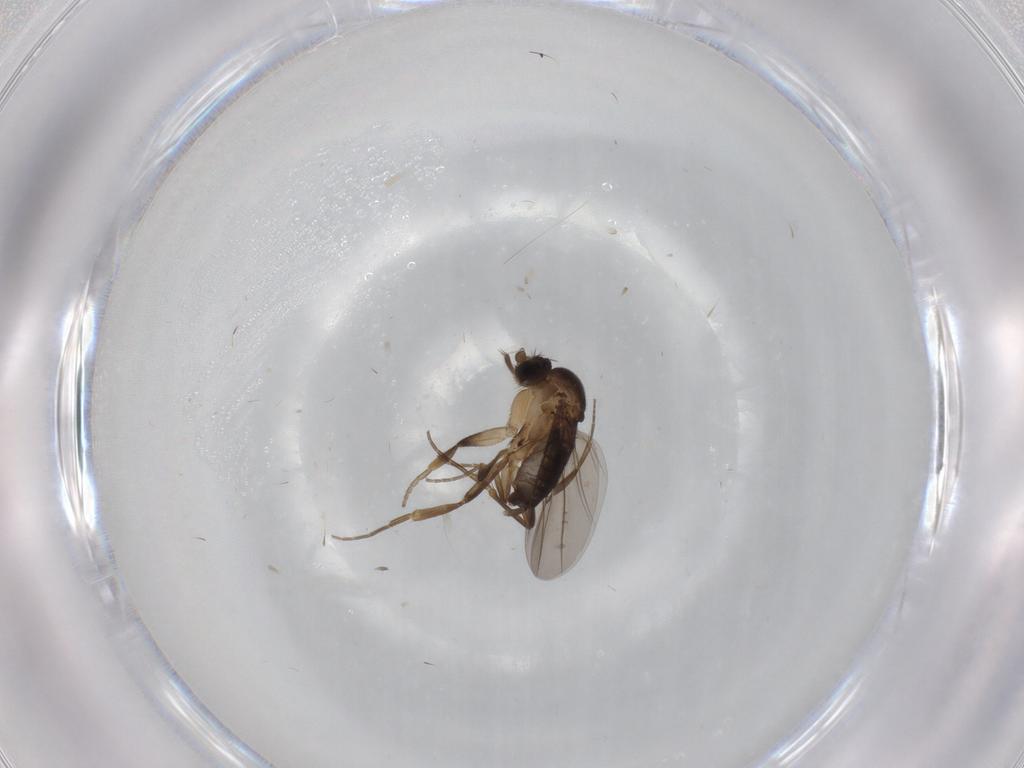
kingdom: Animalia
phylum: Arthropoda
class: Insecta
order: Diptera
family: Phoridae
